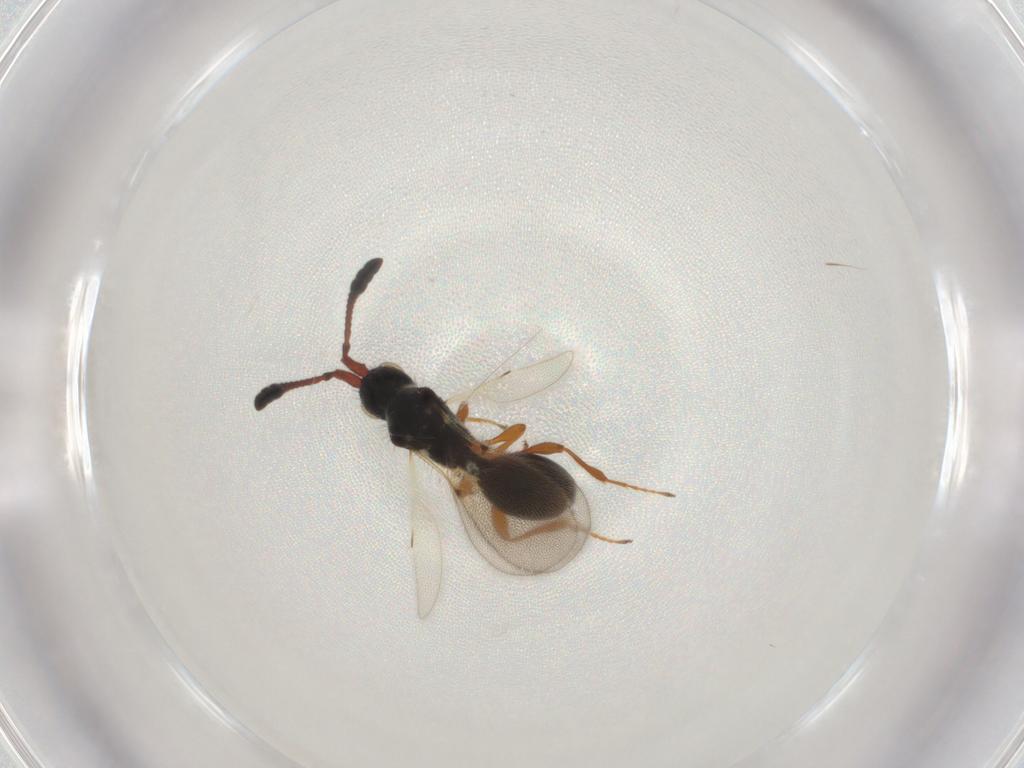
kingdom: Animalia
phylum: Arthropoda
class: Insecta
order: Hymenoptera
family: Diapriidae
